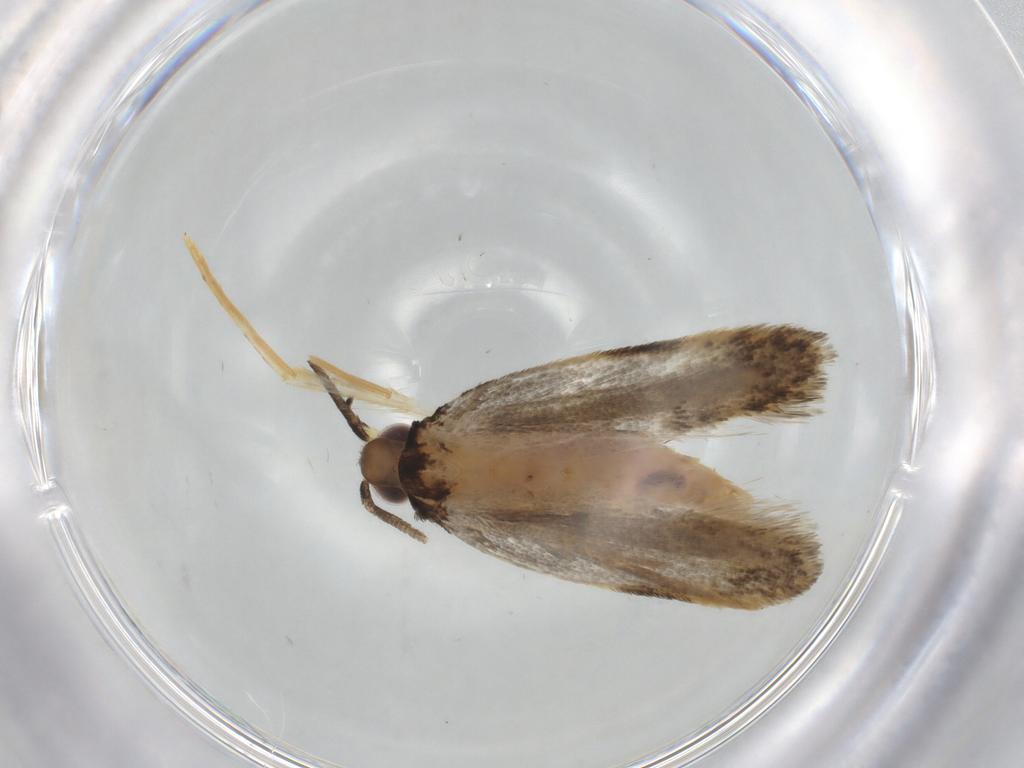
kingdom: Animalia
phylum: Arthropoda
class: Insecta
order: Lepidoptera
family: Autostichidae
